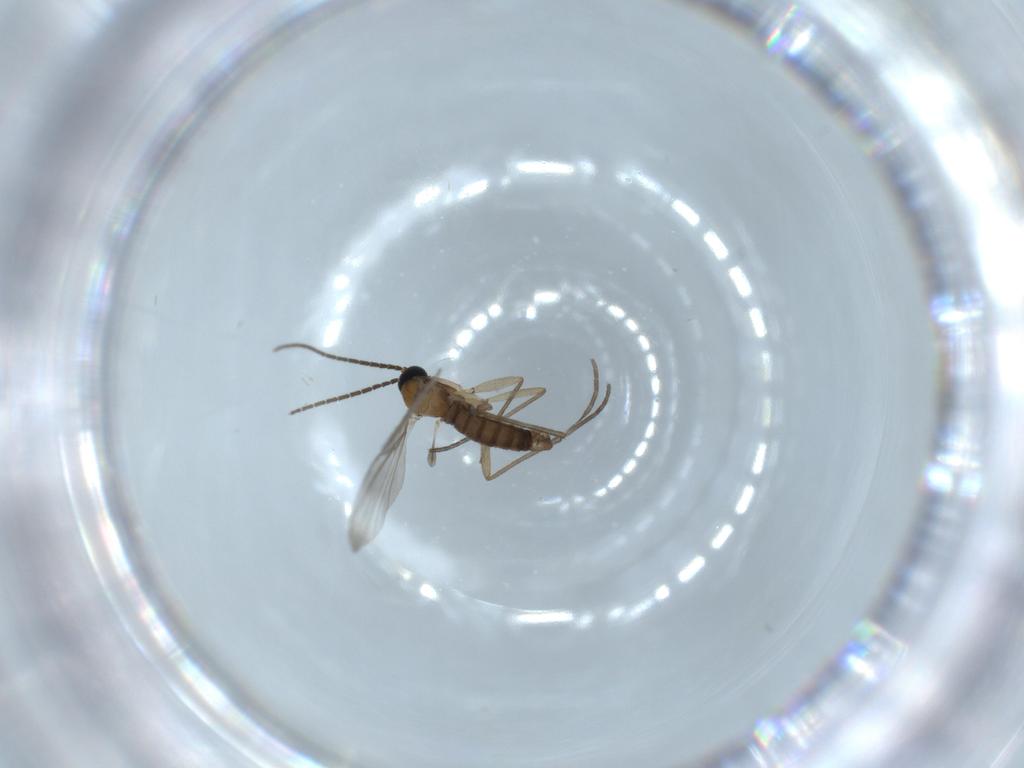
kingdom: Animalia
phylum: Arthropoda
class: Insecta
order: Diptera
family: Sciaridae
